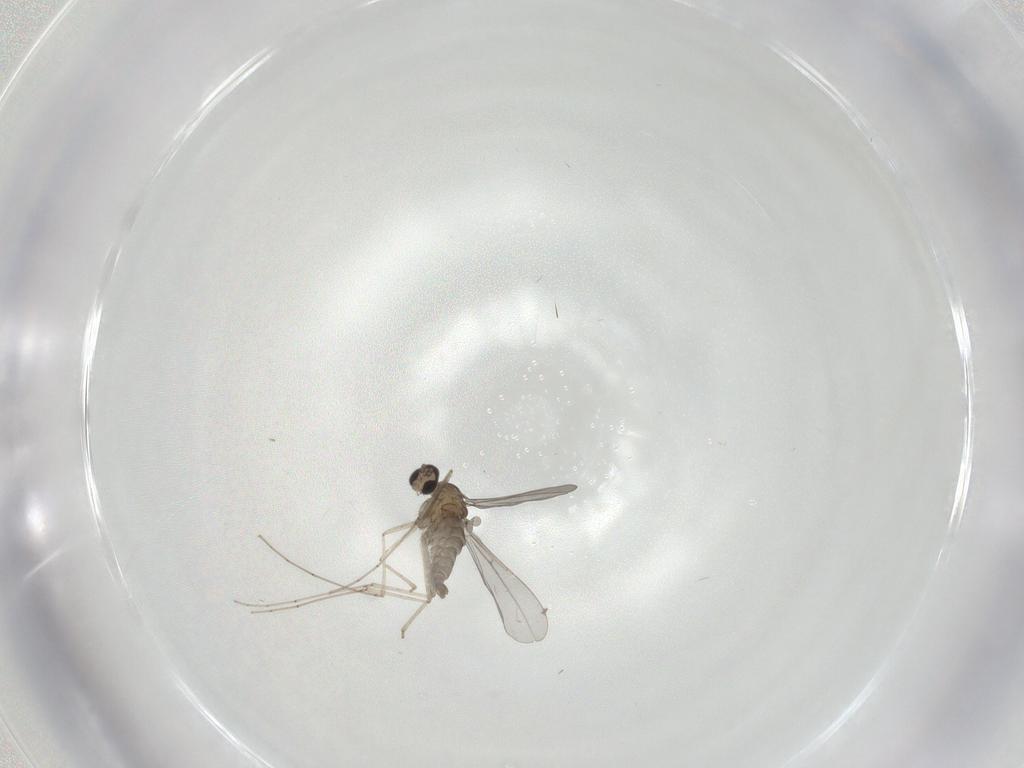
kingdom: Animalia
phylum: Arthropoda
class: Insecta
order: Diptera
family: Cecidomyiidae
